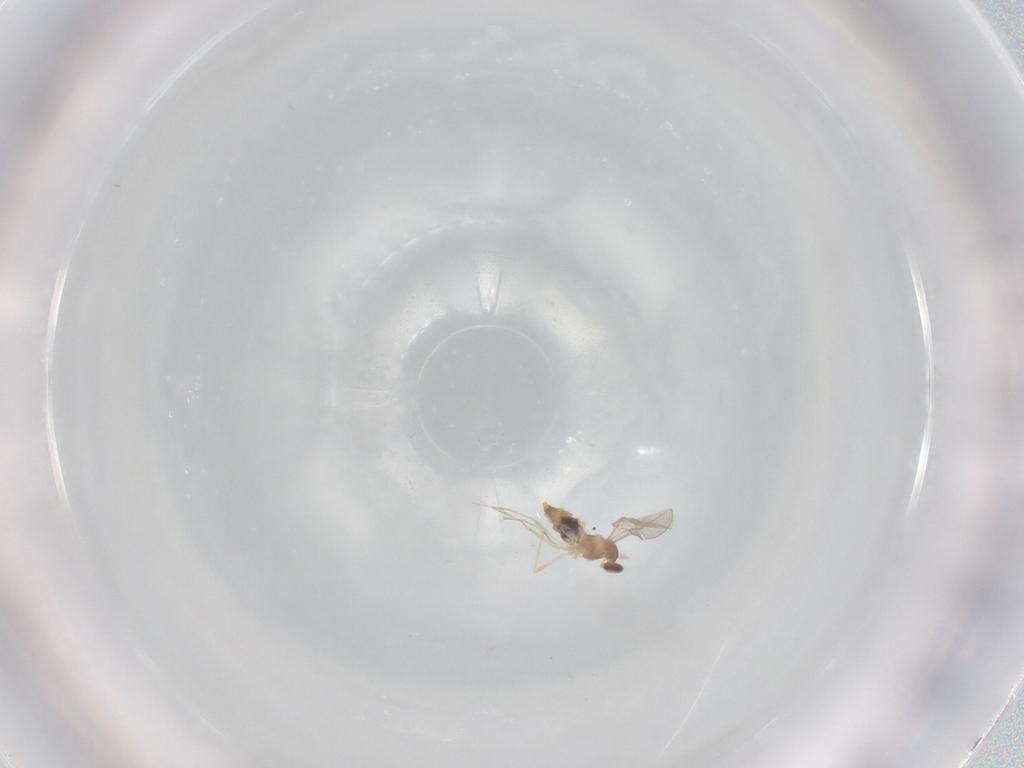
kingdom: Animalia
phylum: Arthropoda
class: Insecta
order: Diptera
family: Cecidomyiidae
